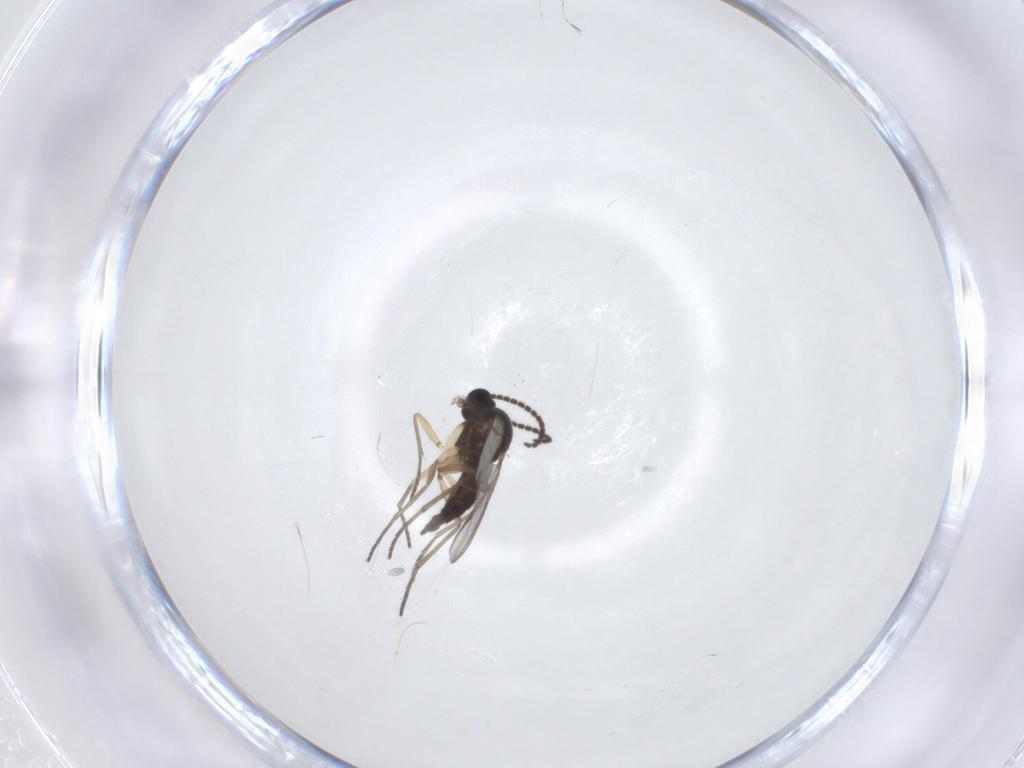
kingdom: Animalia
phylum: Arthropoda
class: Insecta
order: Diptera
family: Sciaridae
